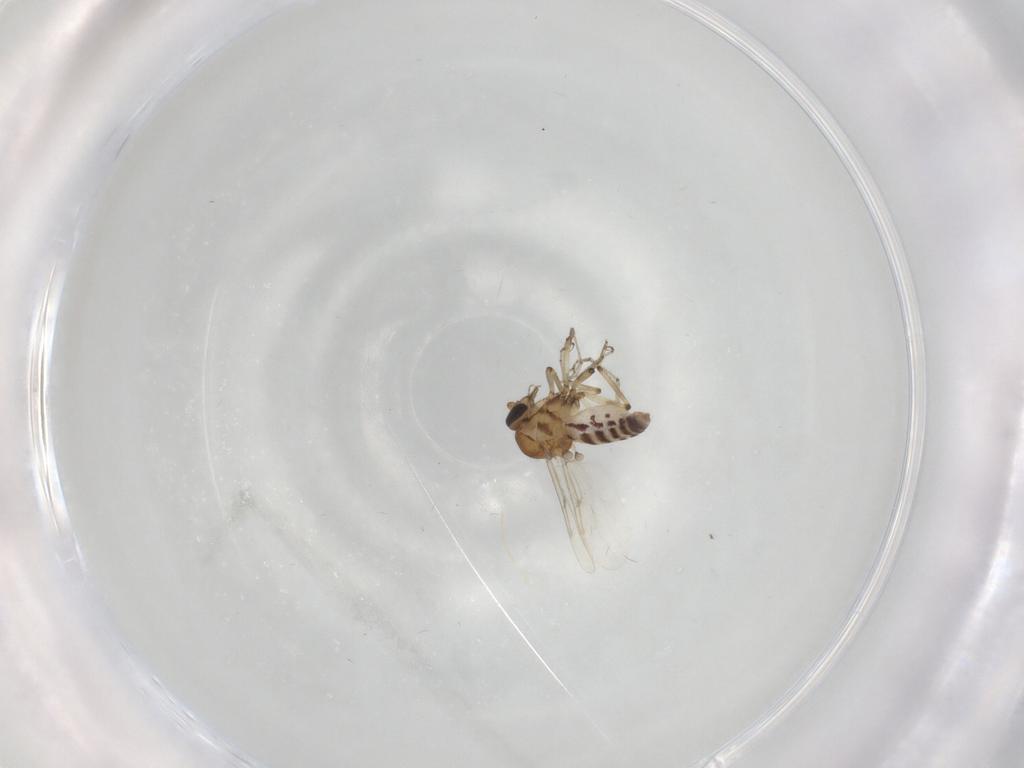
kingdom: Animalia
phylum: Arthropoda
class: Insecta
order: Diptera
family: Ceratopogonidae
